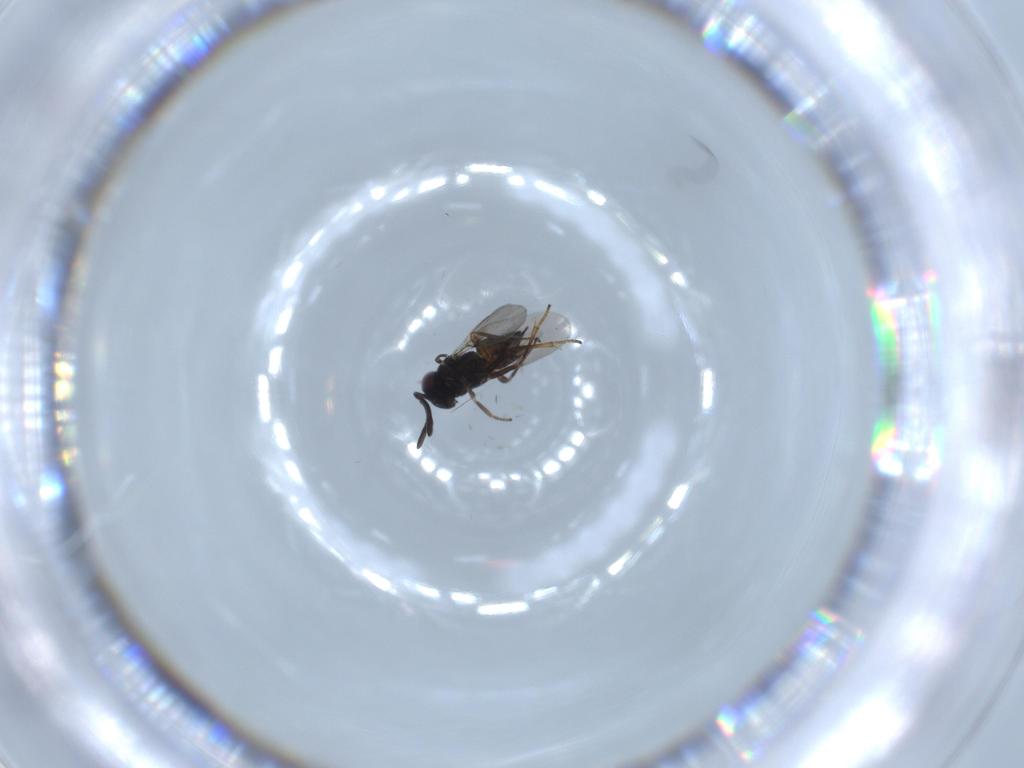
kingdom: Animalia
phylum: Arthropoda
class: Insecta
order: Hymenoptera
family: Encyrtidae
